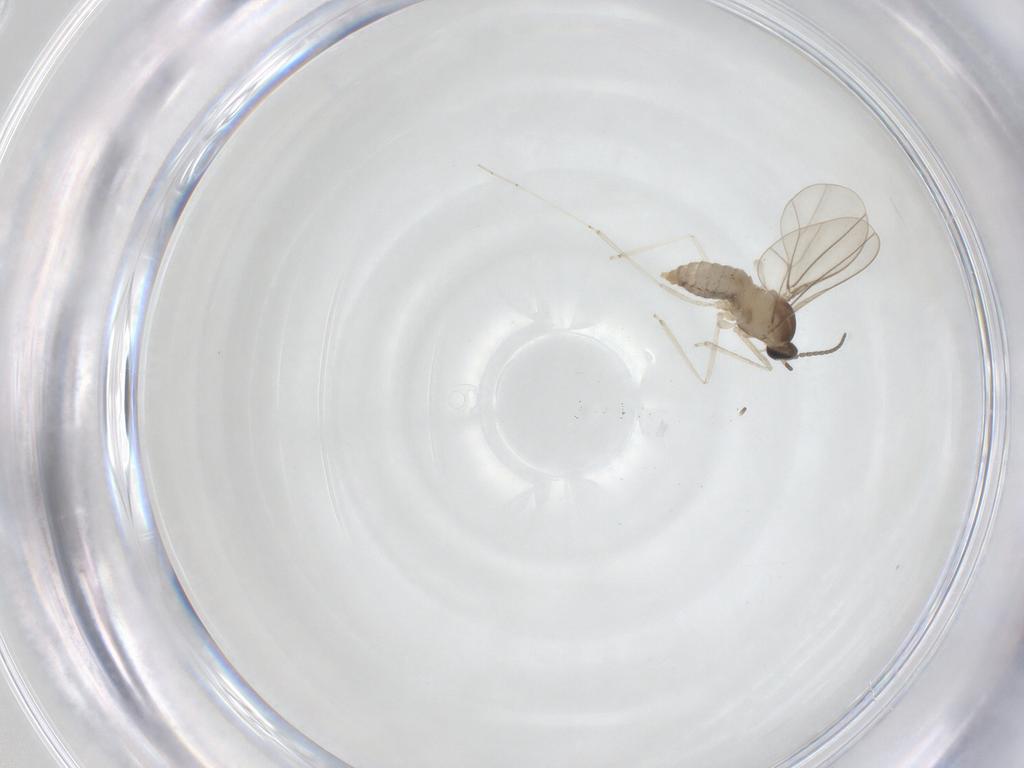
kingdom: Animalia
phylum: Arthropoda
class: Insecta
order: Diptera
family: Cecidomyiidae
